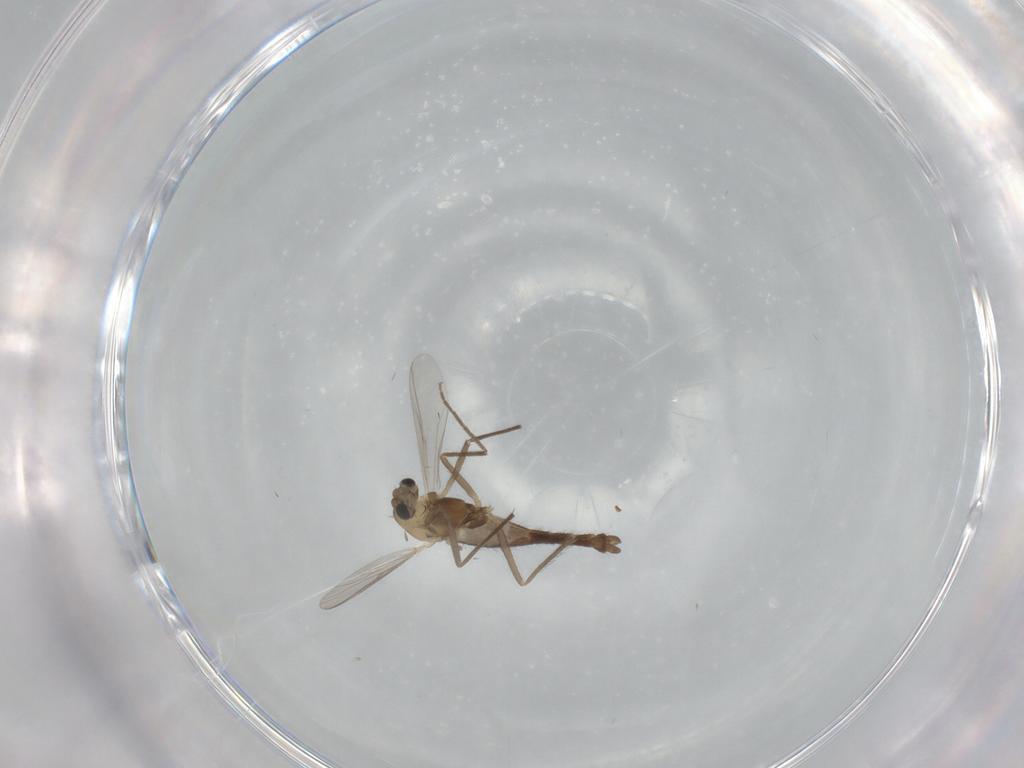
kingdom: Animalia
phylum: Arthropoda
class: Insecta
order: Diptera
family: Chironomidae
